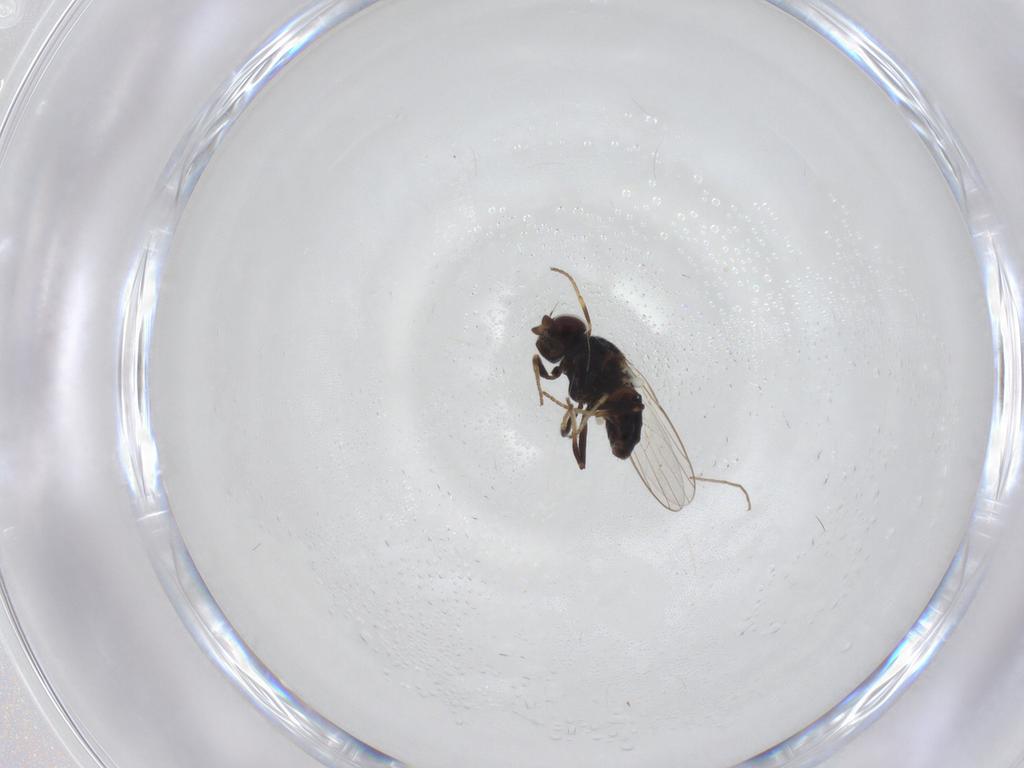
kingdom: Animalia
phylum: Arthropoda
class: Insecta
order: Diptera
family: Chloropidae
